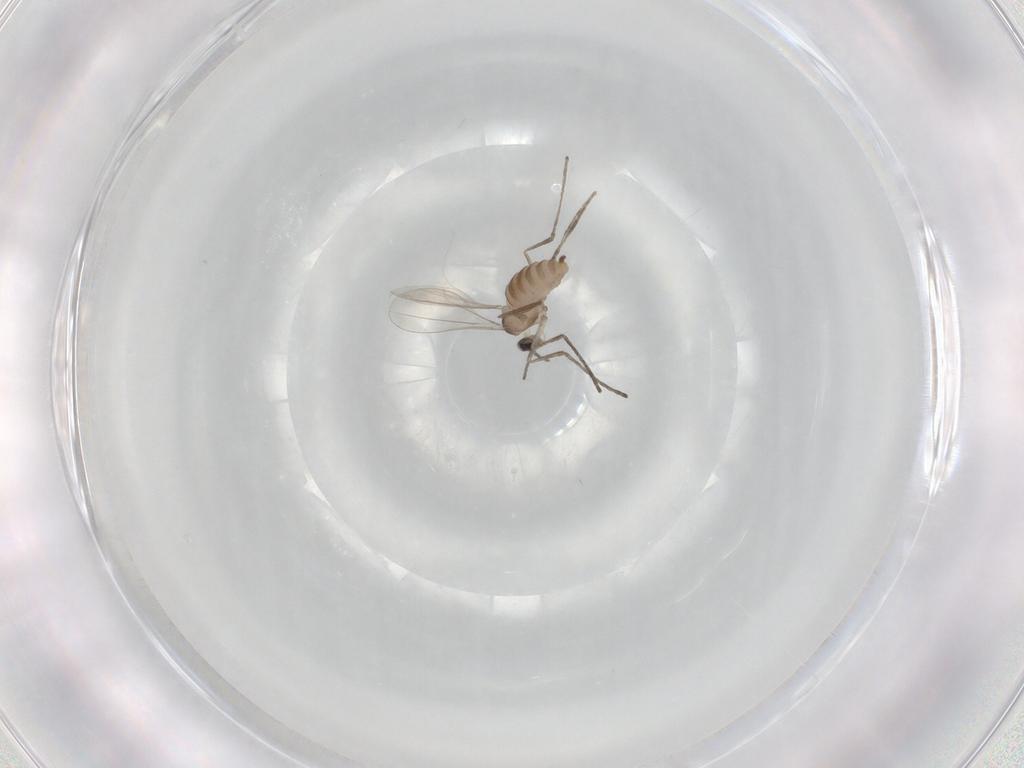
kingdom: Animalia
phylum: Arthropoda
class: Insecta
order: Diptera
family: Cecidomyiidae
